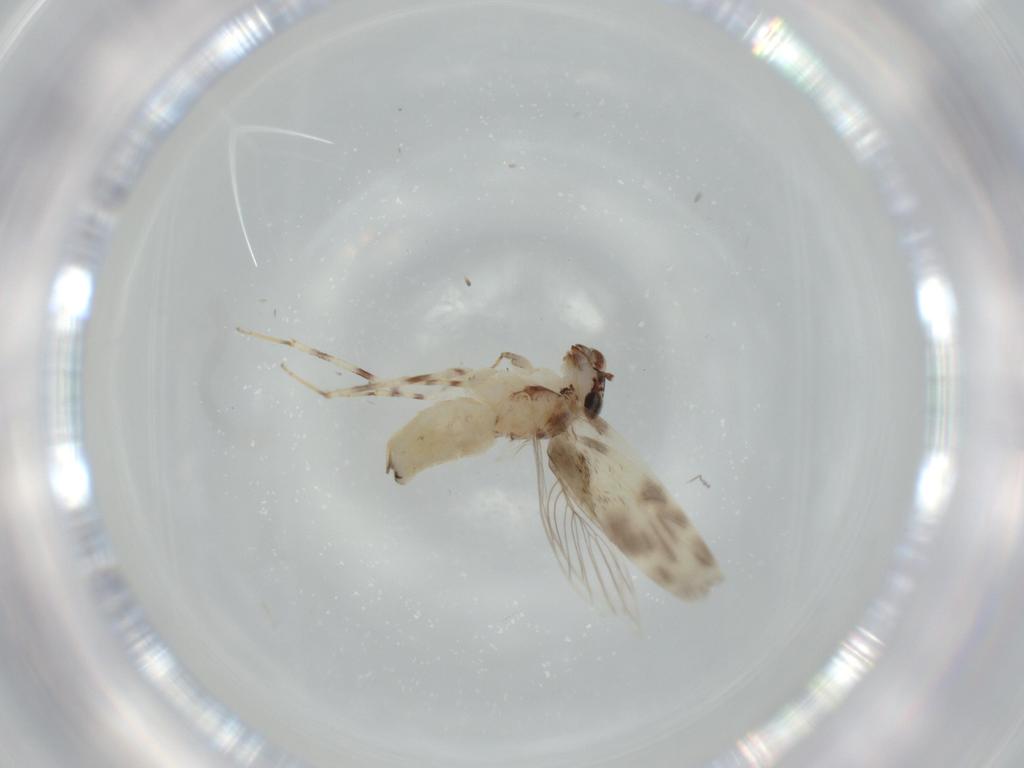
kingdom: Animalia
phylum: Arthropoda
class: Insecta
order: Psocodea
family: Lepidopsocidae
